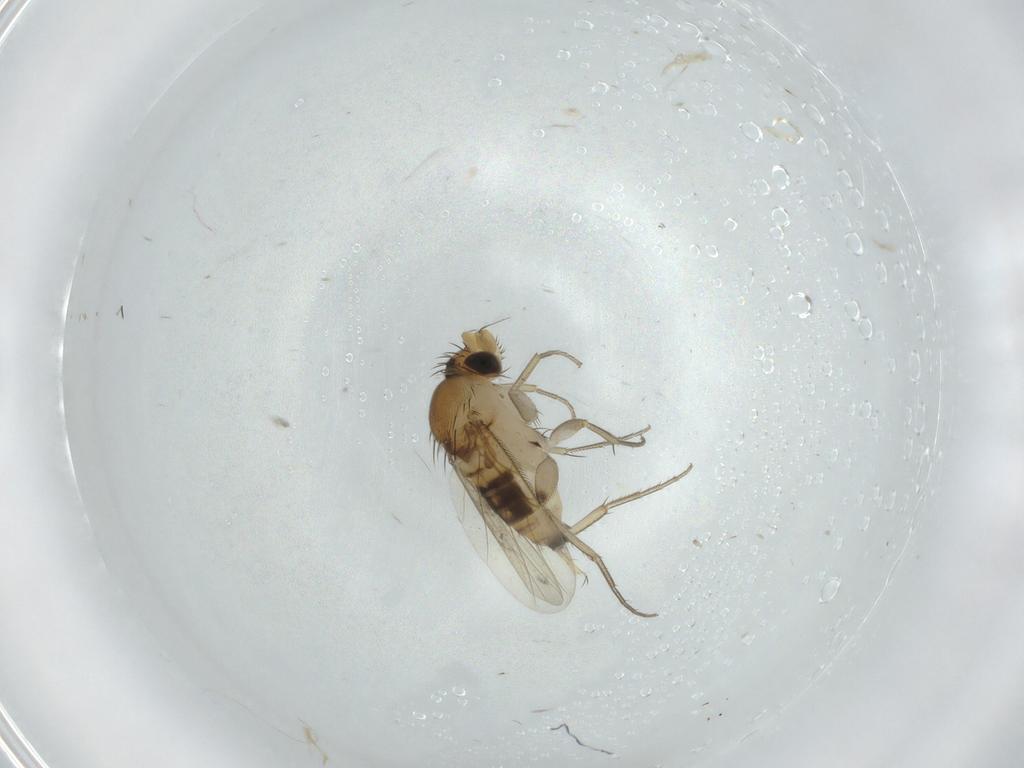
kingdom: Animalia
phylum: Arthropoda
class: Insecta
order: Diptera
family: Phoridae
